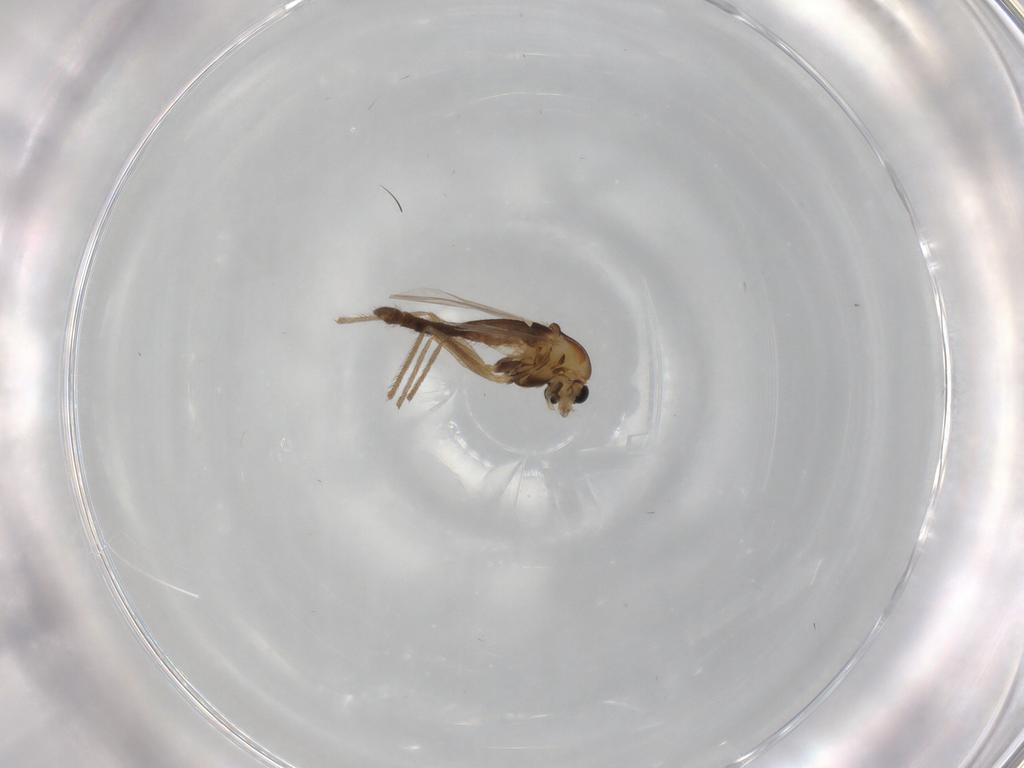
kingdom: Animalia
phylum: Arthropoda
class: Insecta
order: Diptera
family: Chironomidae
